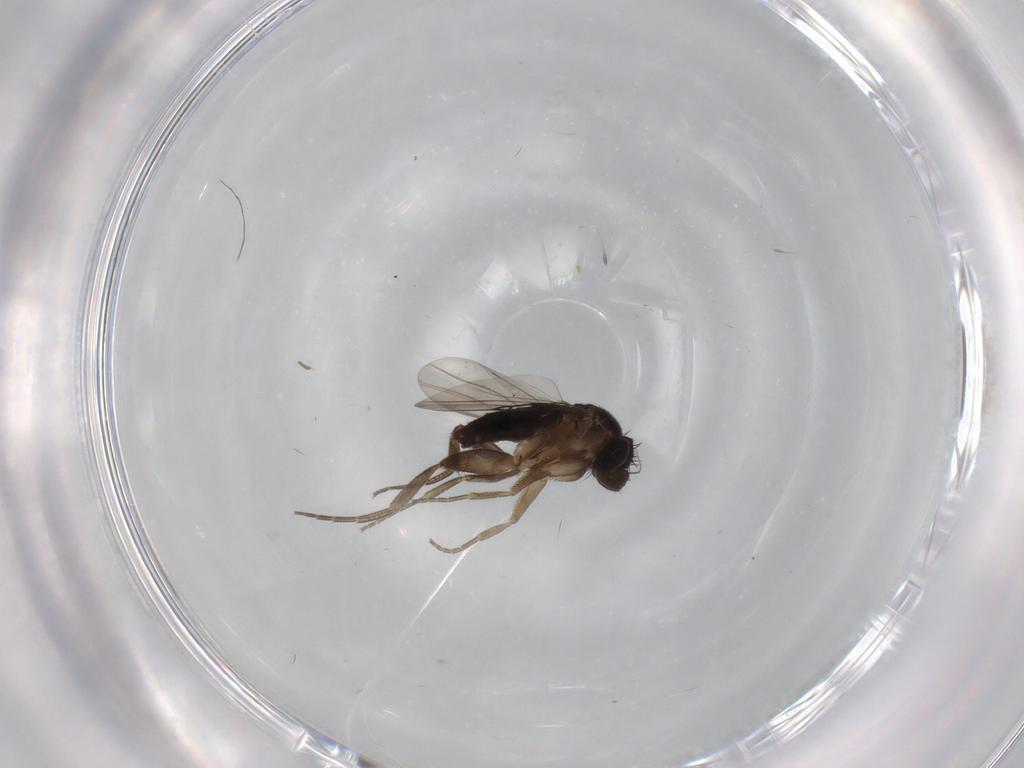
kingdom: Animalia
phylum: Arthropoda
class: Insecta
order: Diptera
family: Phoridae
